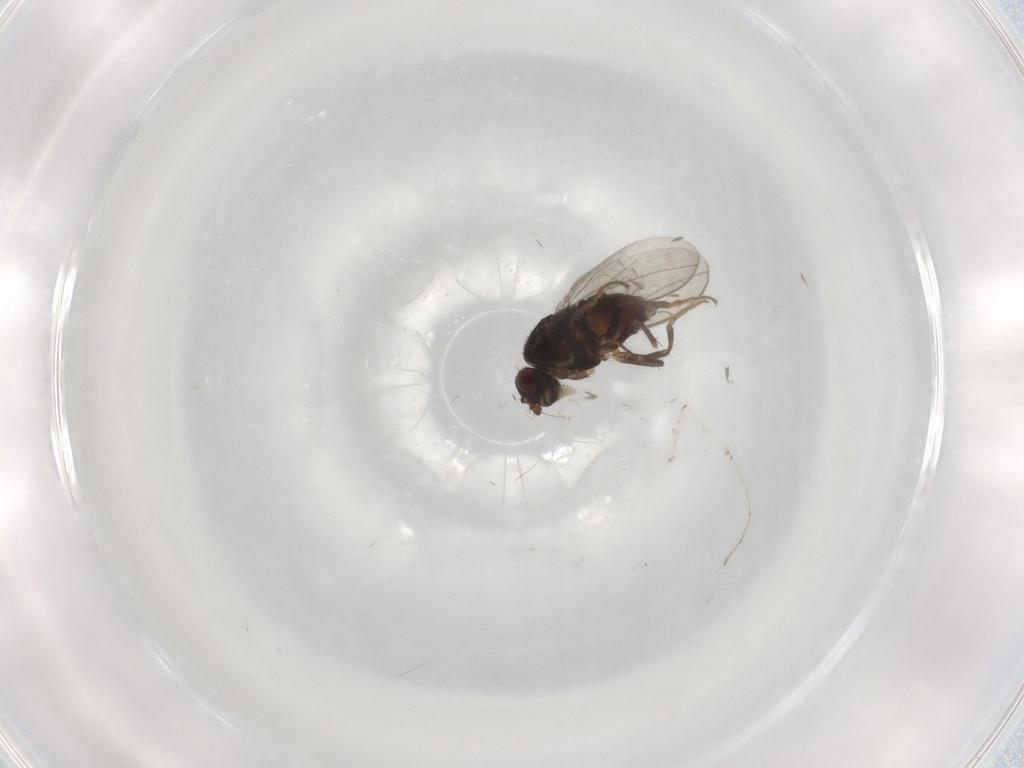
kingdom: Animalia
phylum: Arthropoda
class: Insecta
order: Diptera
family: Sphaeroceridae
